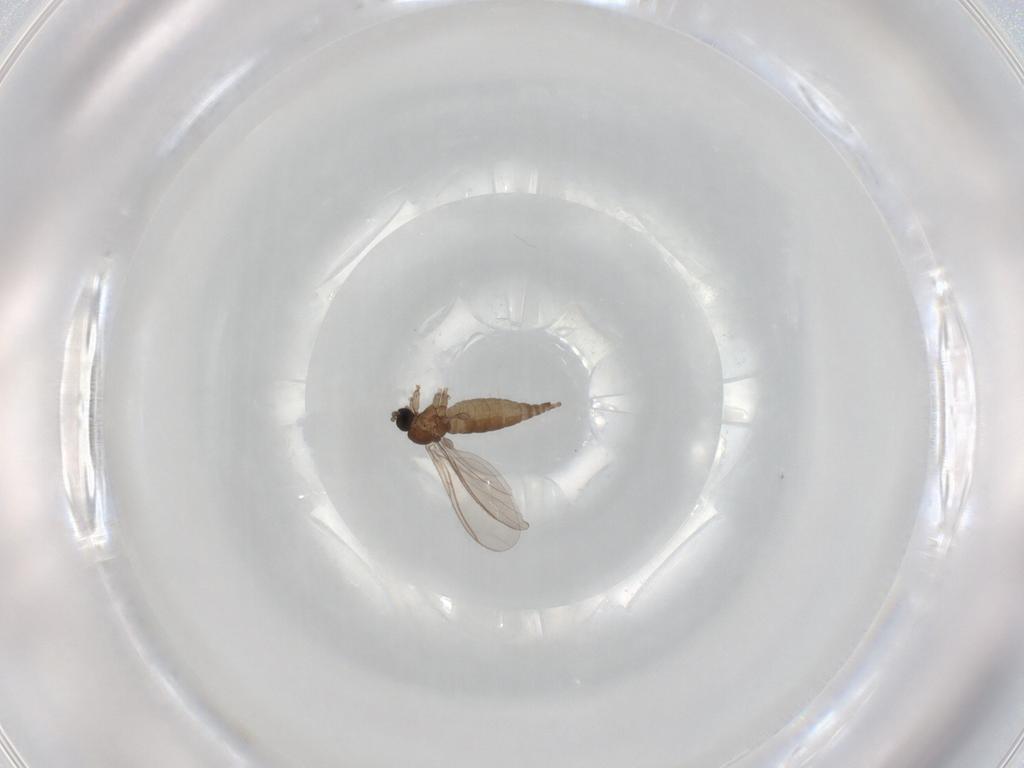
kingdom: Animalia
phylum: Arthropoda
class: Insecta
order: Diptera
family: Sciaridae
